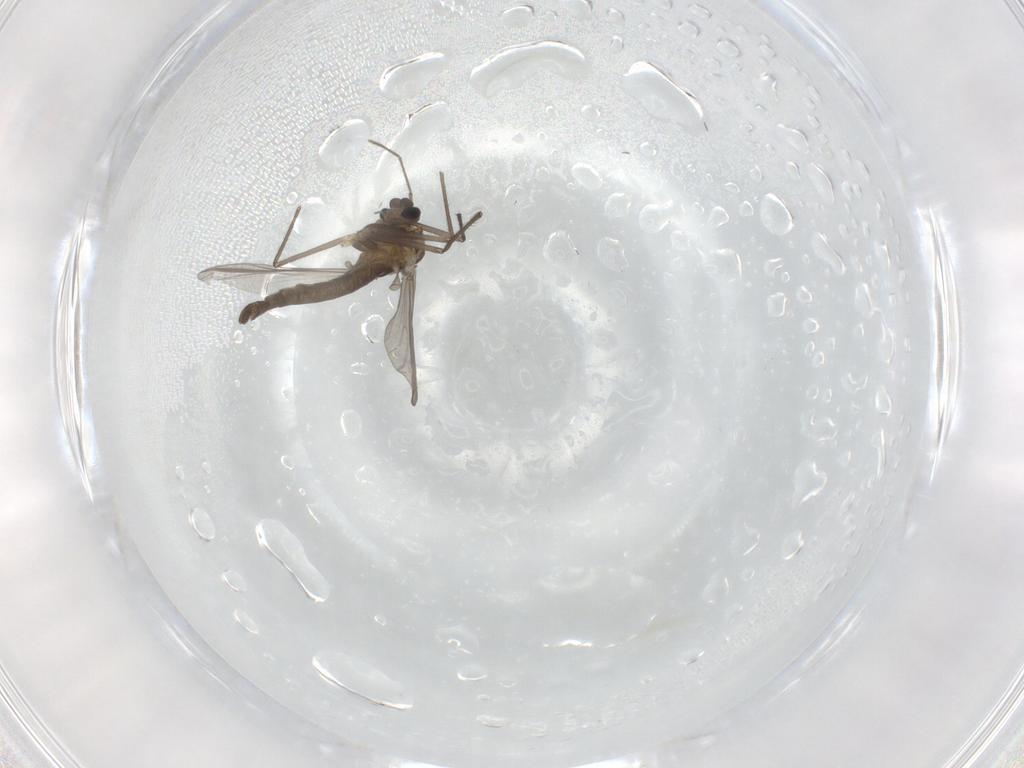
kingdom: Animalia
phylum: Arthropoda
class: Insecta
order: Diptera
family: Chironomidae
